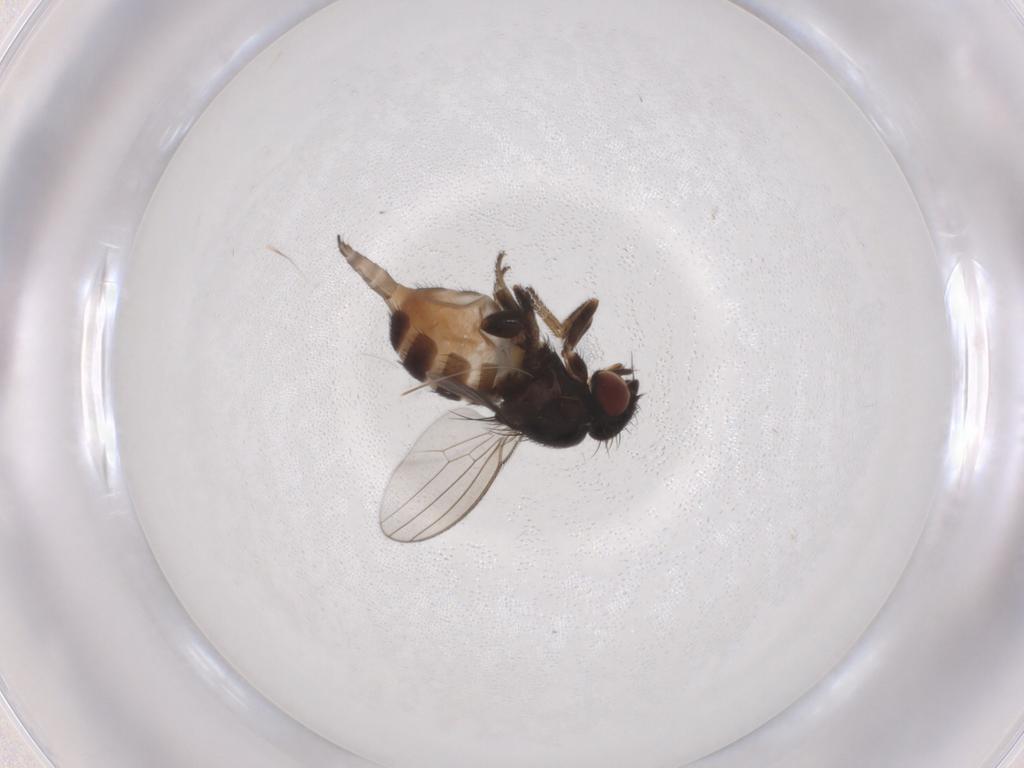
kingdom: Animalia
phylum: Arthropoda
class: Insecta
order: Diptera
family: Milichiidae
